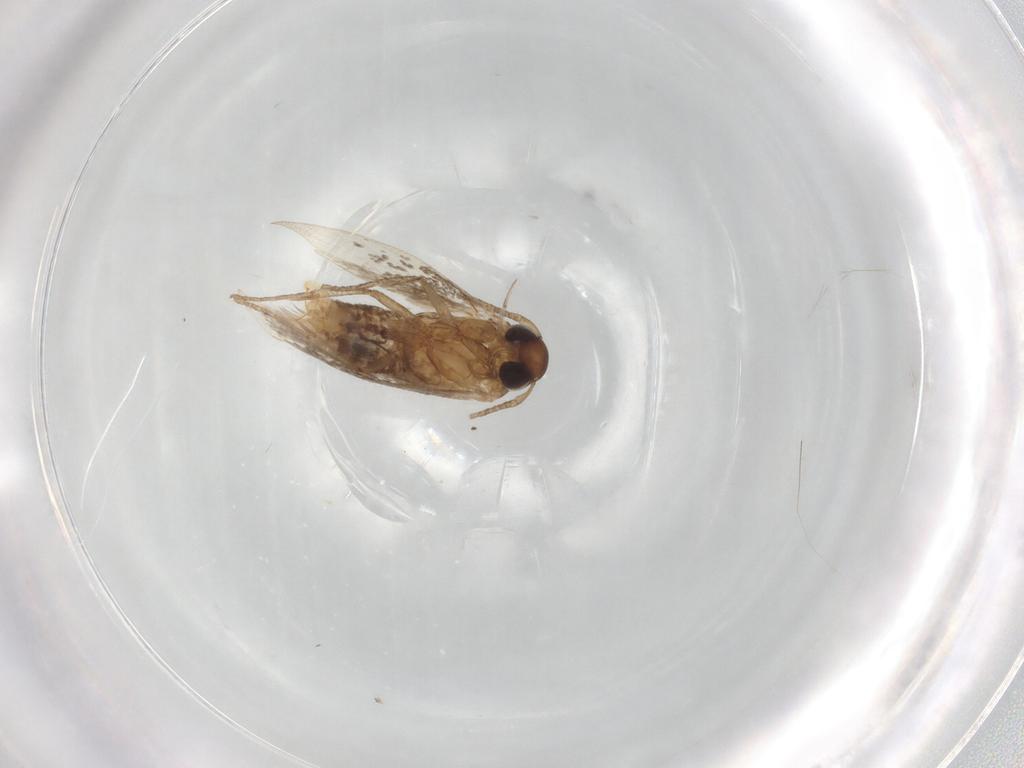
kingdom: Animalia
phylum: Arthropoda
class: Insecta
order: Lepidoptera
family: Cosmopterigidae
